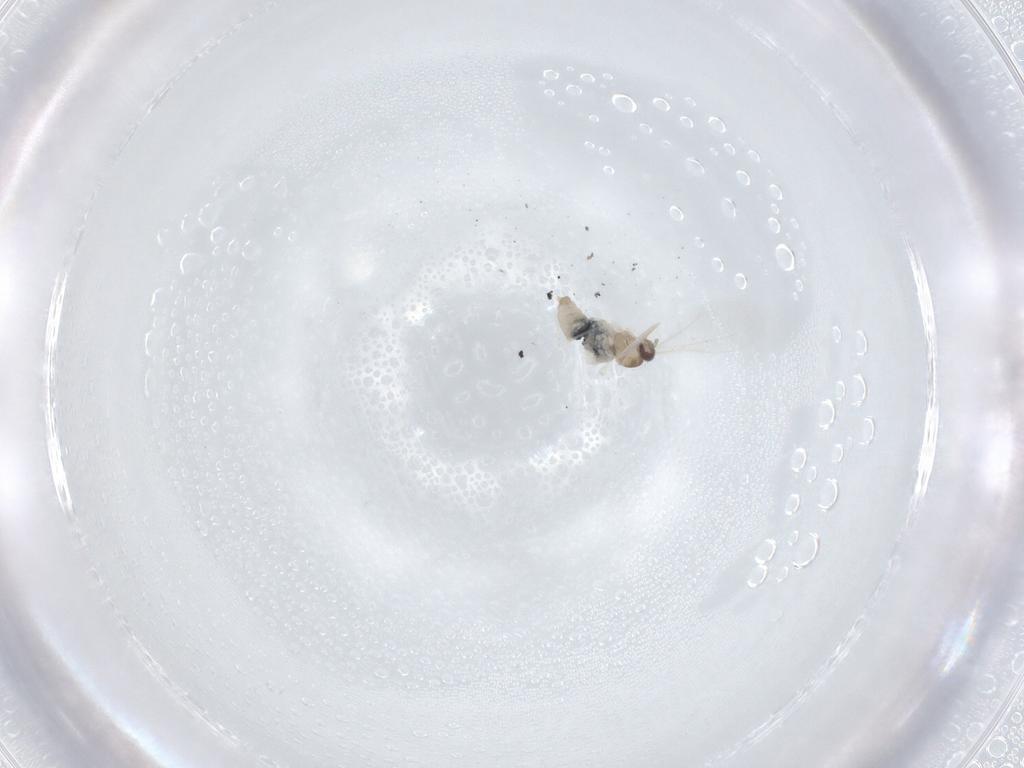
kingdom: Animalia
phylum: Arthropoda
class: Insecta
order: Diptera
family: Cecidomyiidae
